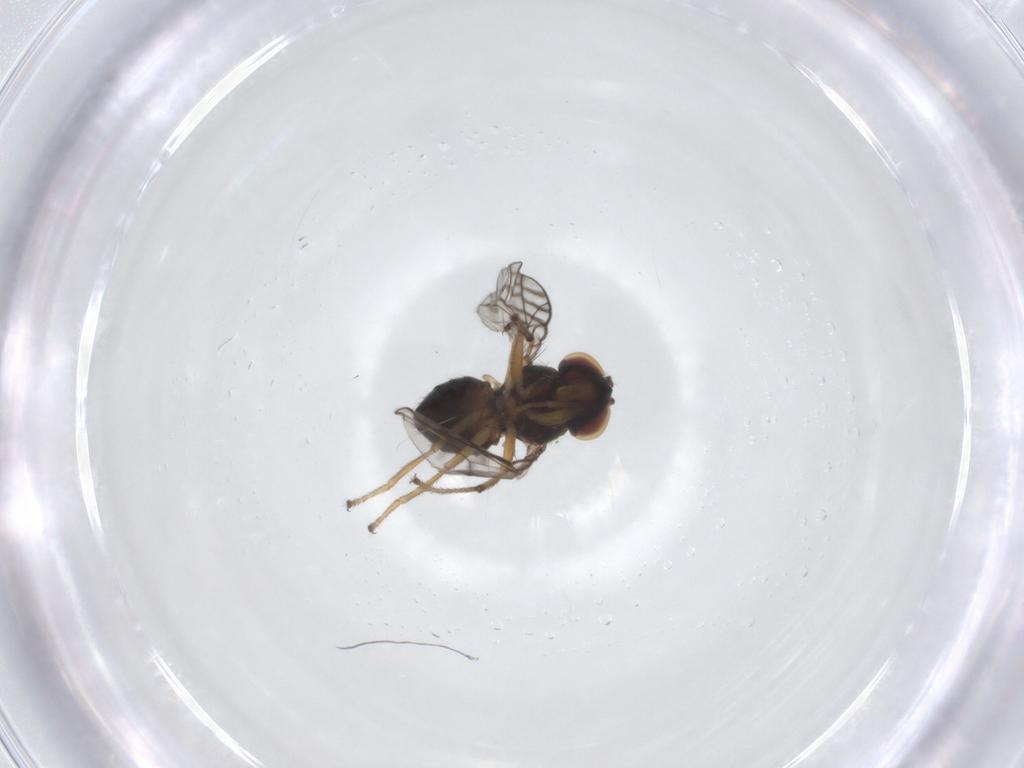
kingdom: Animalia
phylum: Arthropoda
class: Insecta
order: Diptera
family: Ephydridae
